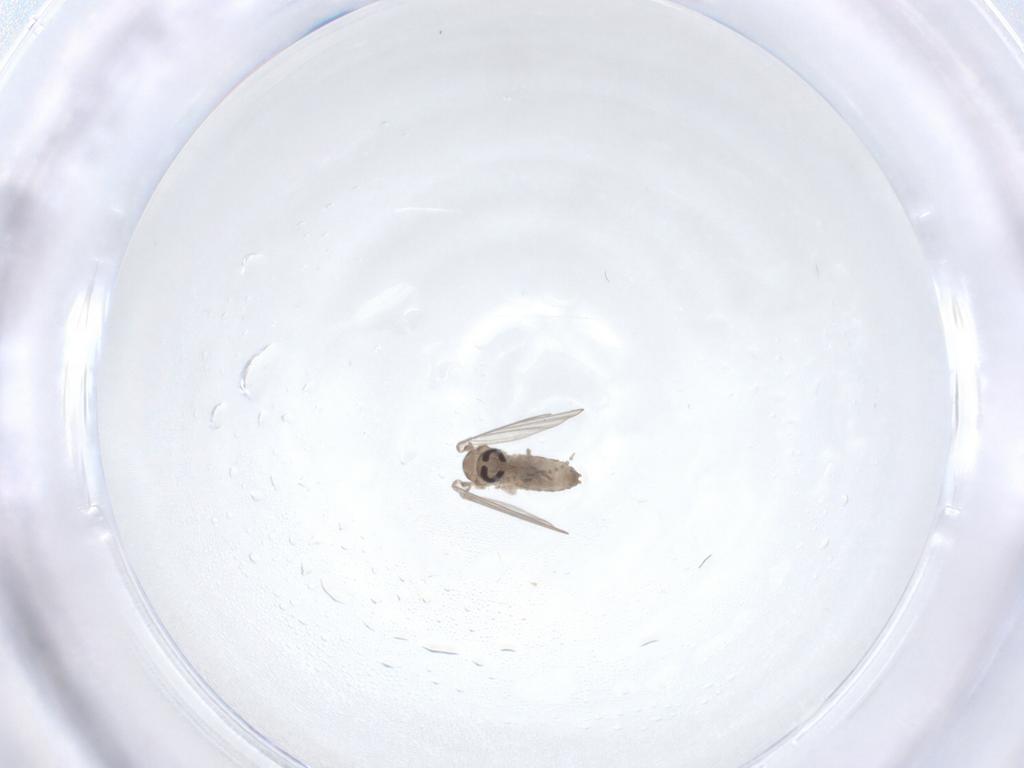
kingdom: Animalia
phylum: Arthropoda
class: Insecta
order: Diptera
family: Psychodidae
